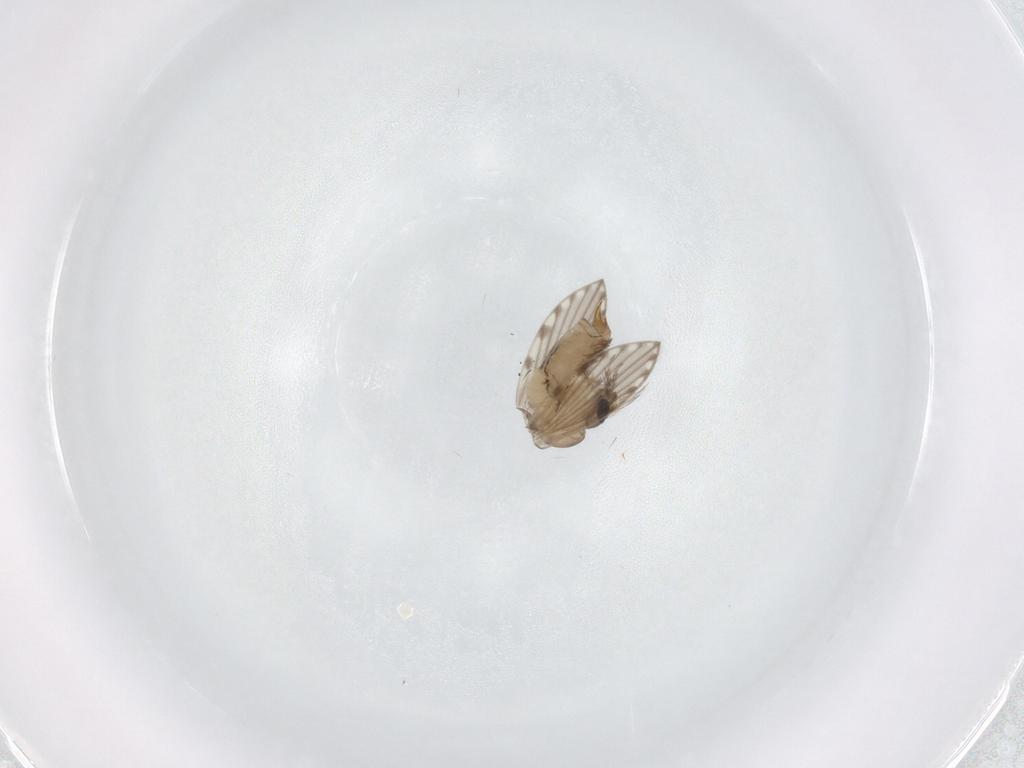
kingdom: Animalia
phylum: Arthropoda
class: Insecta
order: Diptera
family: Psychodidae
